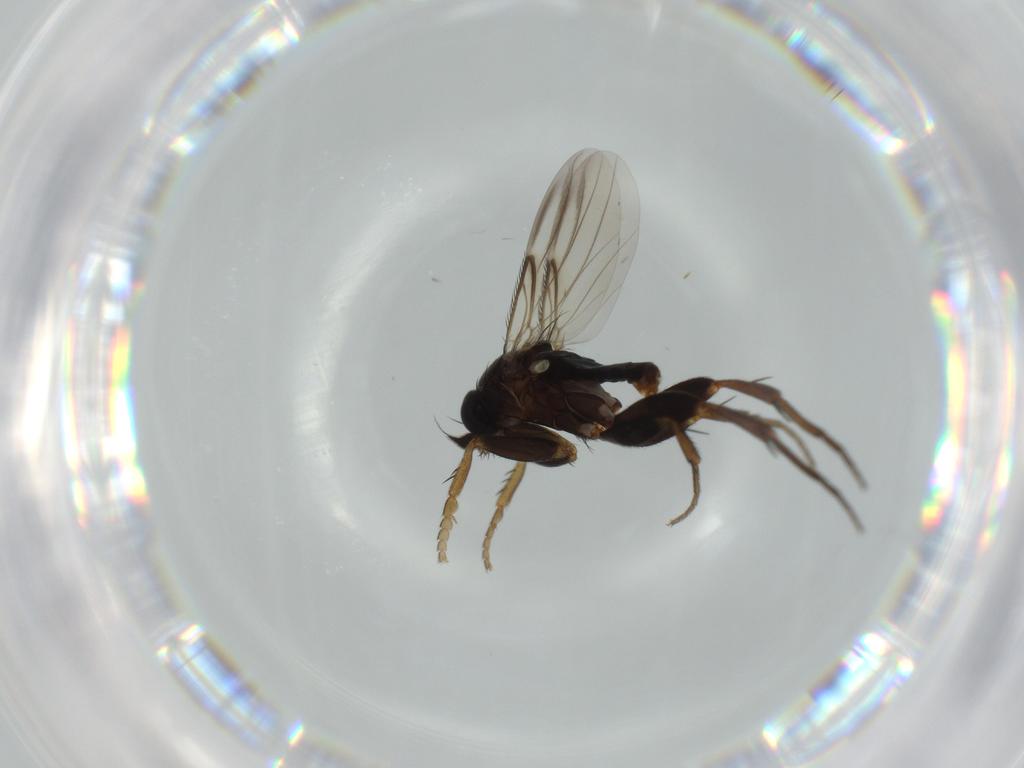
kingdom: Animalia
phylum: Arthropoda
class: Insecta
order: Diptera
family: Phoridae
